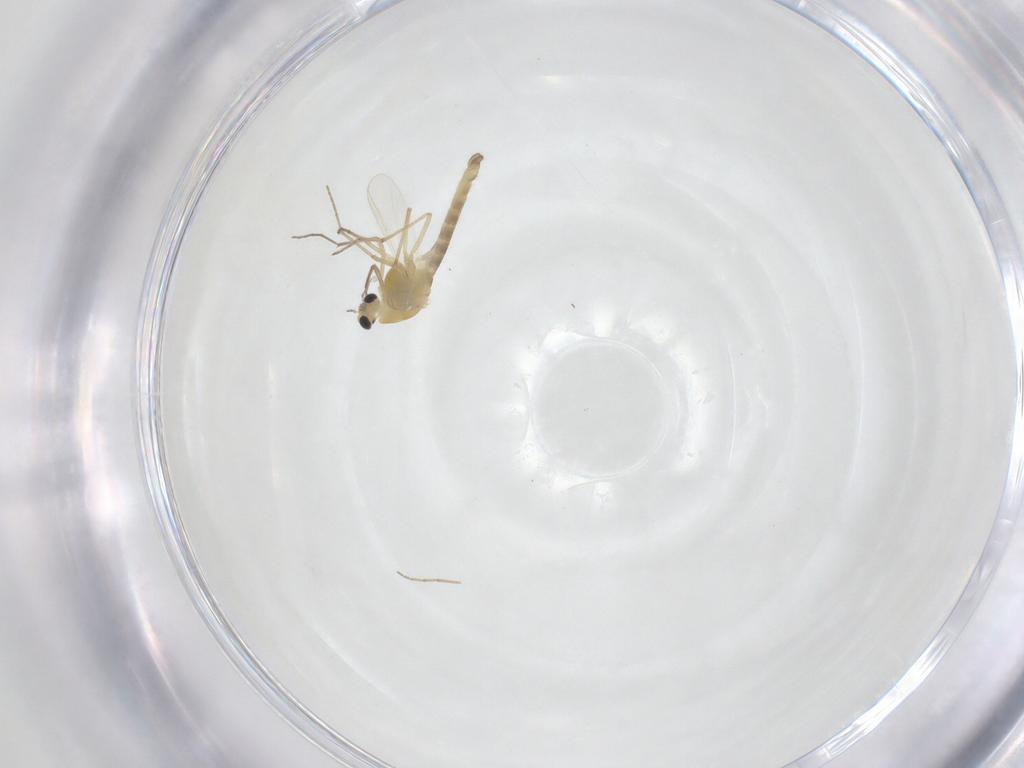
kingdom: Animalia
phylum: Arthropoda
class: Insecta
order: Diptera
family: Chironomidae
